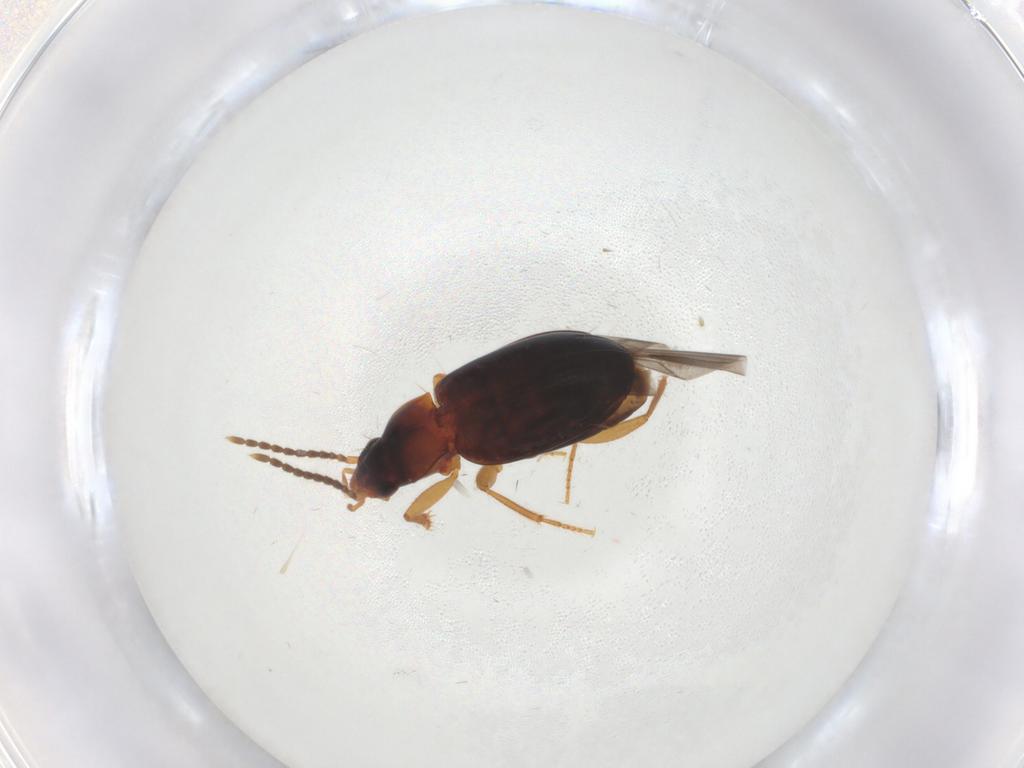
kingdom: Animalia
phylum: Arthropoda
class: Insecta
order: Coleoptera
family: Carabidae
